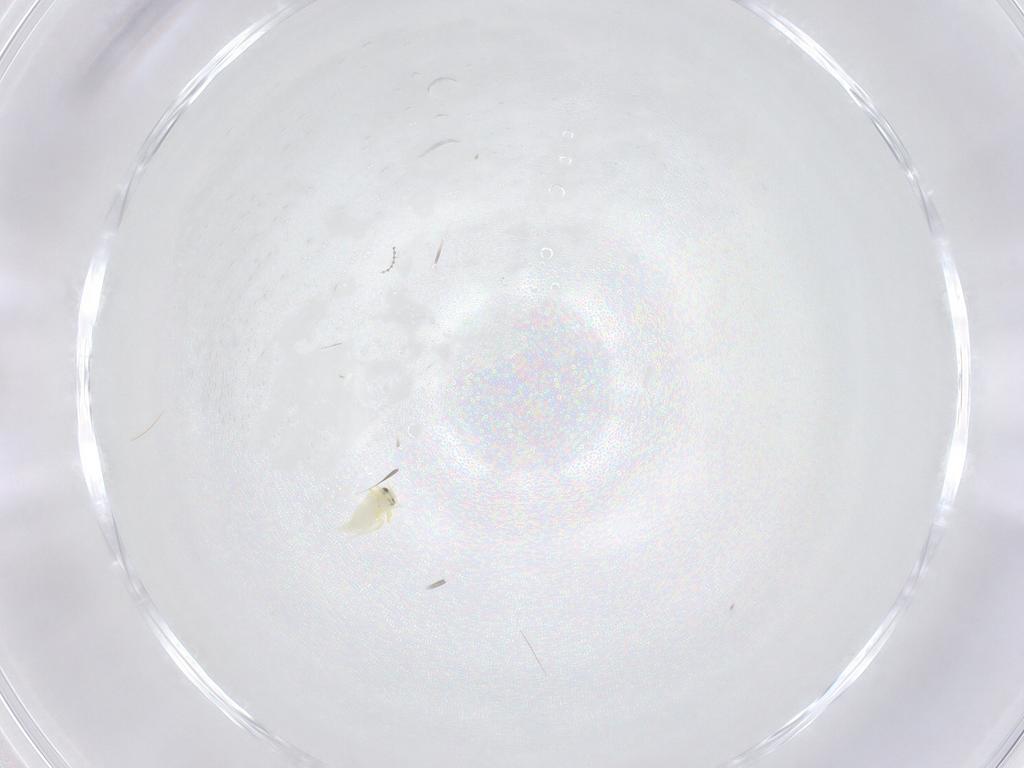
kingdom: Animalia
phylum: Arthropoda
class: Insecta
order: Hemiptera
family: Aleyrodidae
